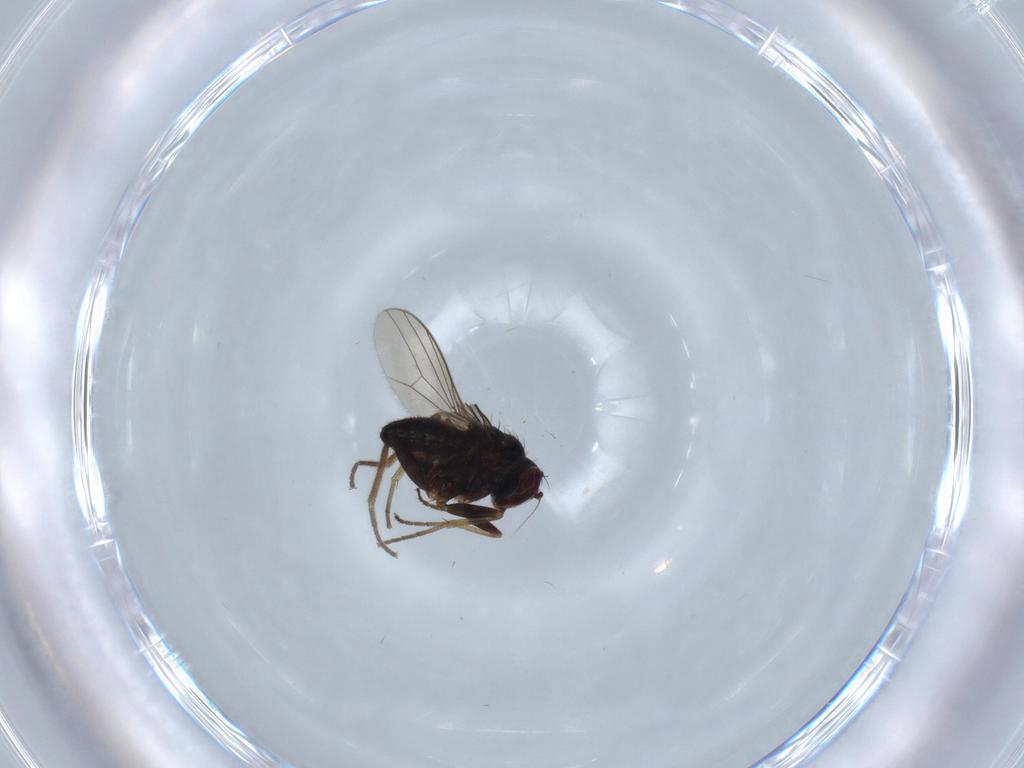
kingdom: Animalia
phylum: Arthropoda
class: Insecta
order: Diptera
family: Dolichopodidae
